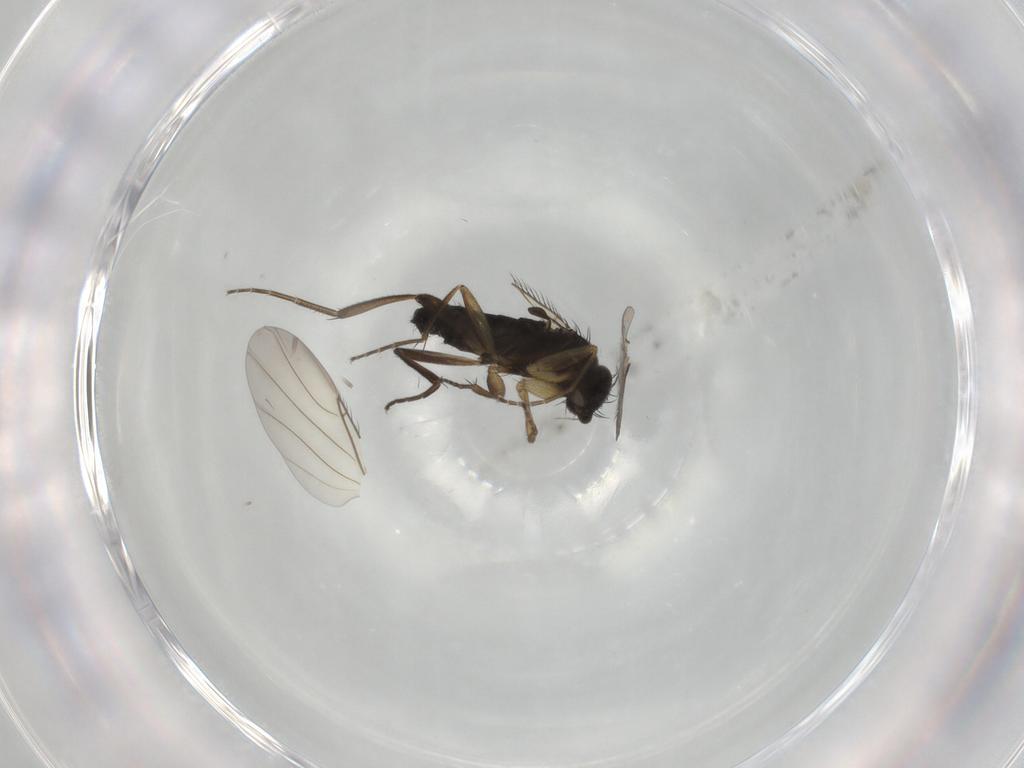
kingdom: Animalia
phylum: Arthropoda
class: Insecta
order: Diptera
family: Phoridae
